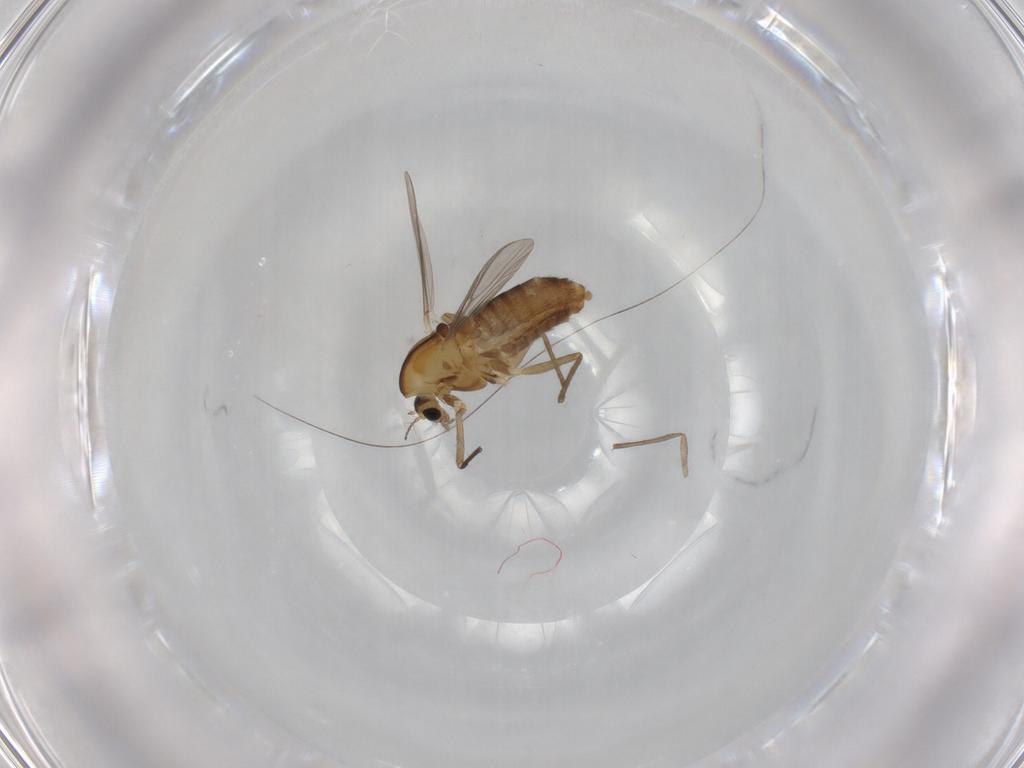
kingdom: Animalia
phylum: Arthropoda
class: Insecta
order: Diptera
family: Chironomidae
